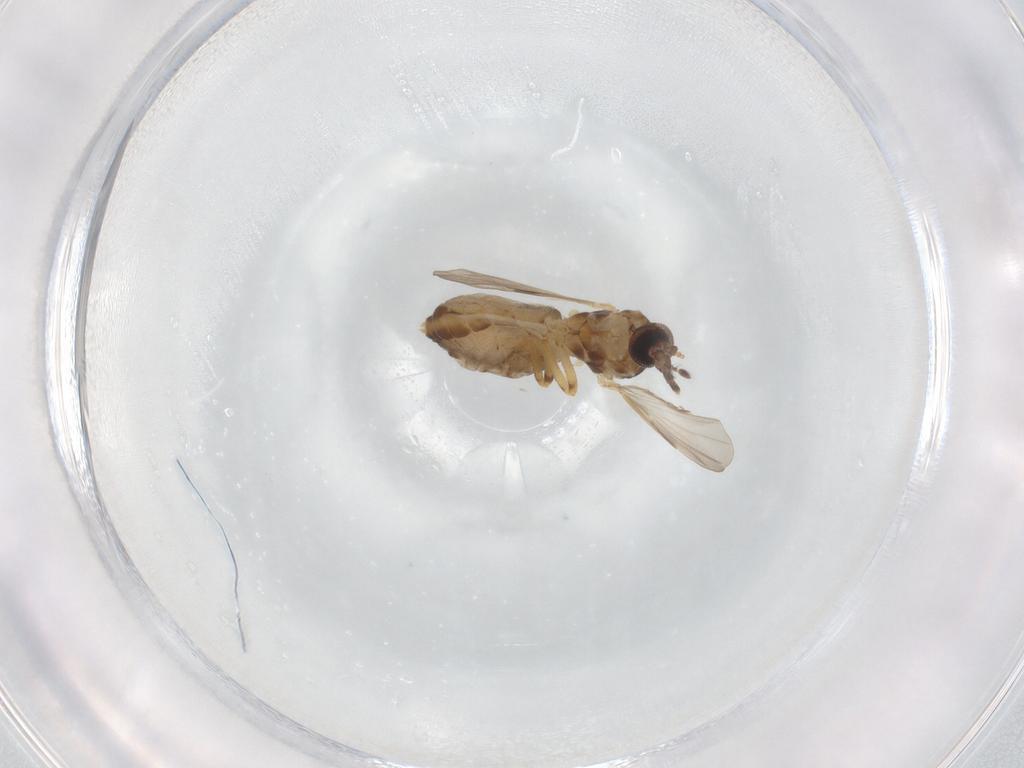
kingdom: Animalia
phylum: Arthropoda
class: Insecta
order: Diptera
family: Ceratopogonidae
